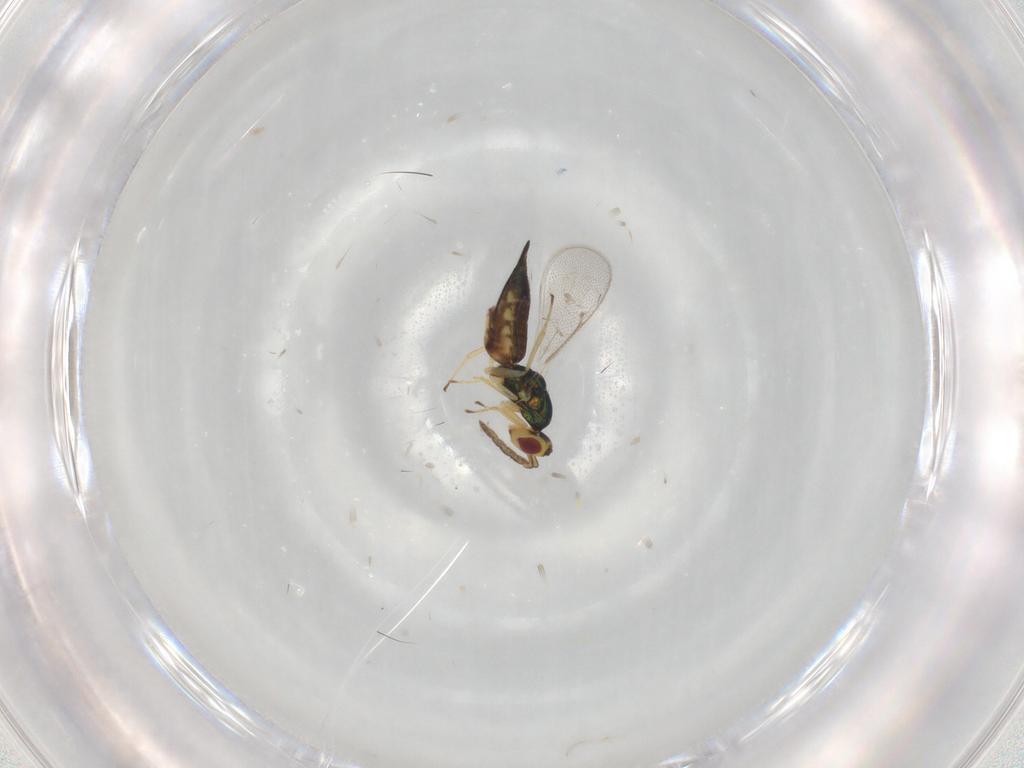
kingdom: Animalia
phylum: Arthropoda
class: Insecta
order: Hymenoptera
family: Eulophidae
